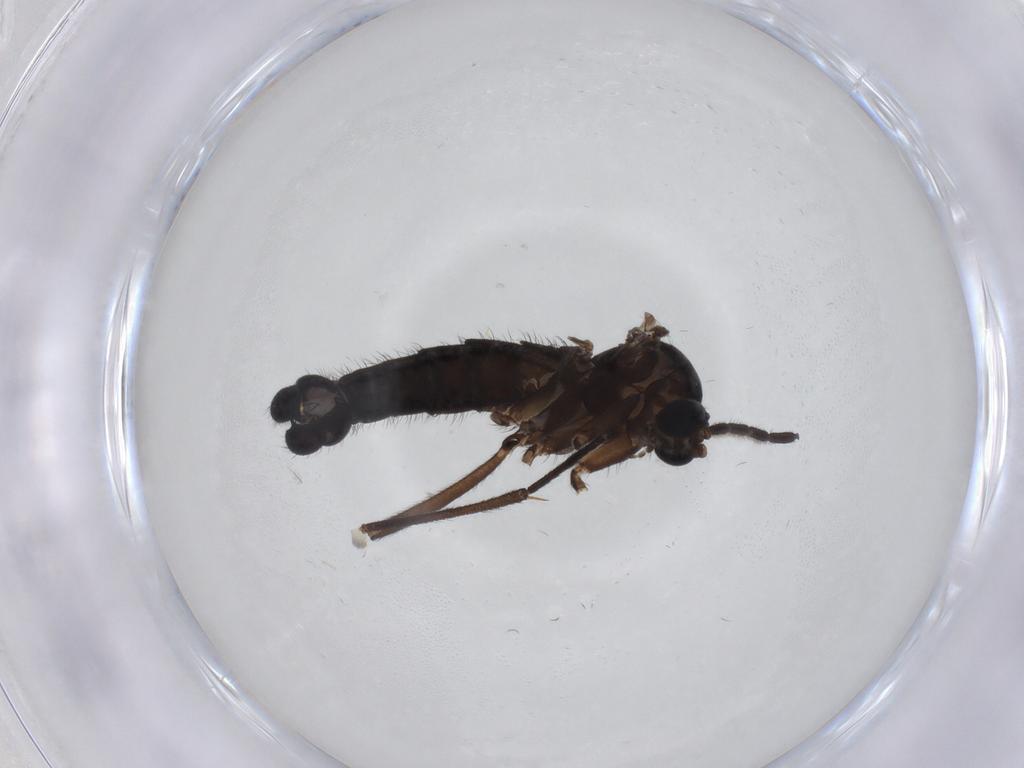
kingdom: Animalia
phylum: Arthropoda
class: Insecta
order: Diptera
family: Sciaridae
